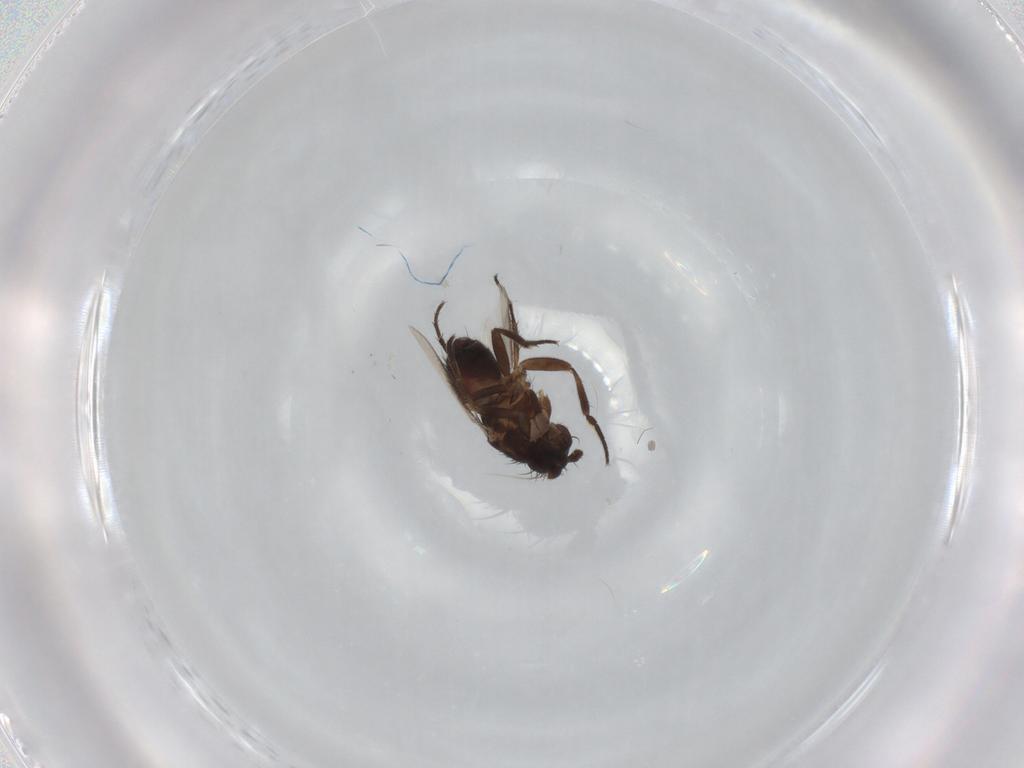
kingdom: Animalia
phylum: Arthropoda
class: Insecta
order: Diptera
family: Sphaeroceridae
